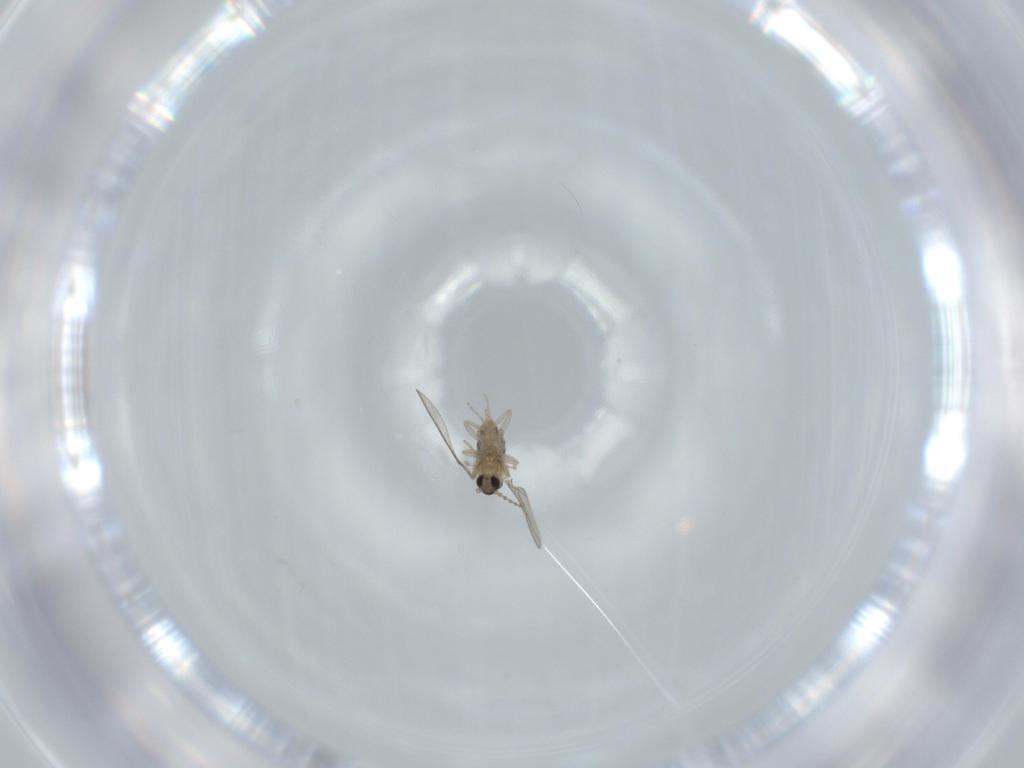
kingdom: Animalia
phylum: Arthropoda
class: Insecta
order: Diptera
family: Cecidomyiidae
